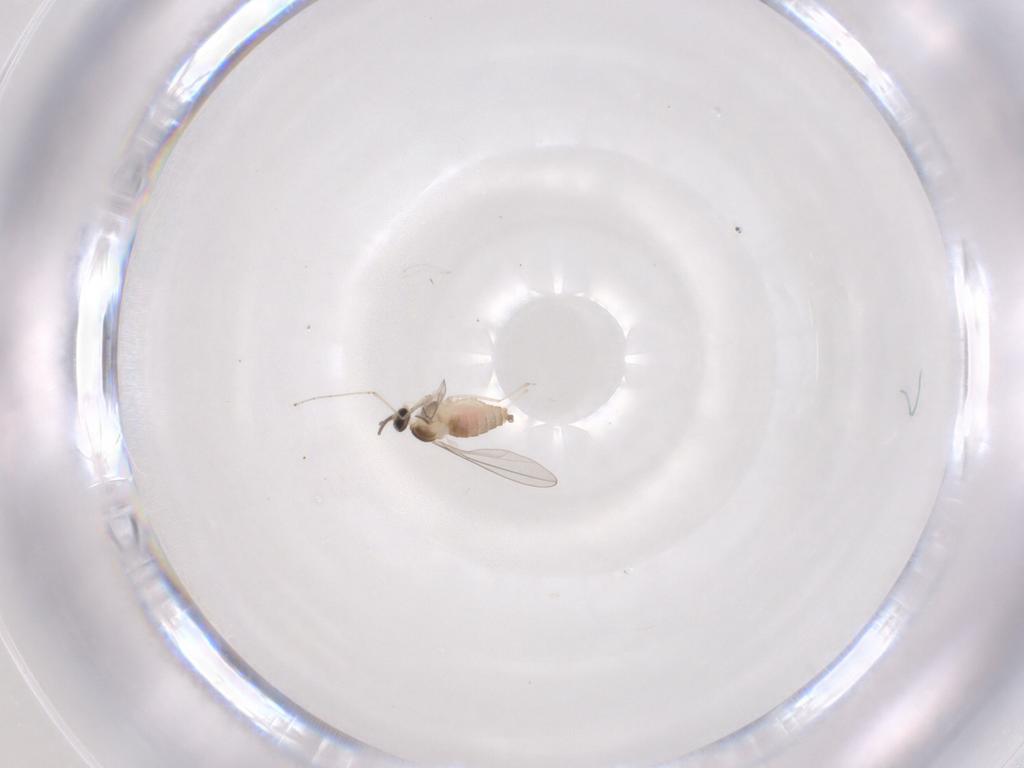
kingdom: Animalia
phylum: Arthropoda
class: Insecta
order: Diptera
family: Cecidomyiidae
